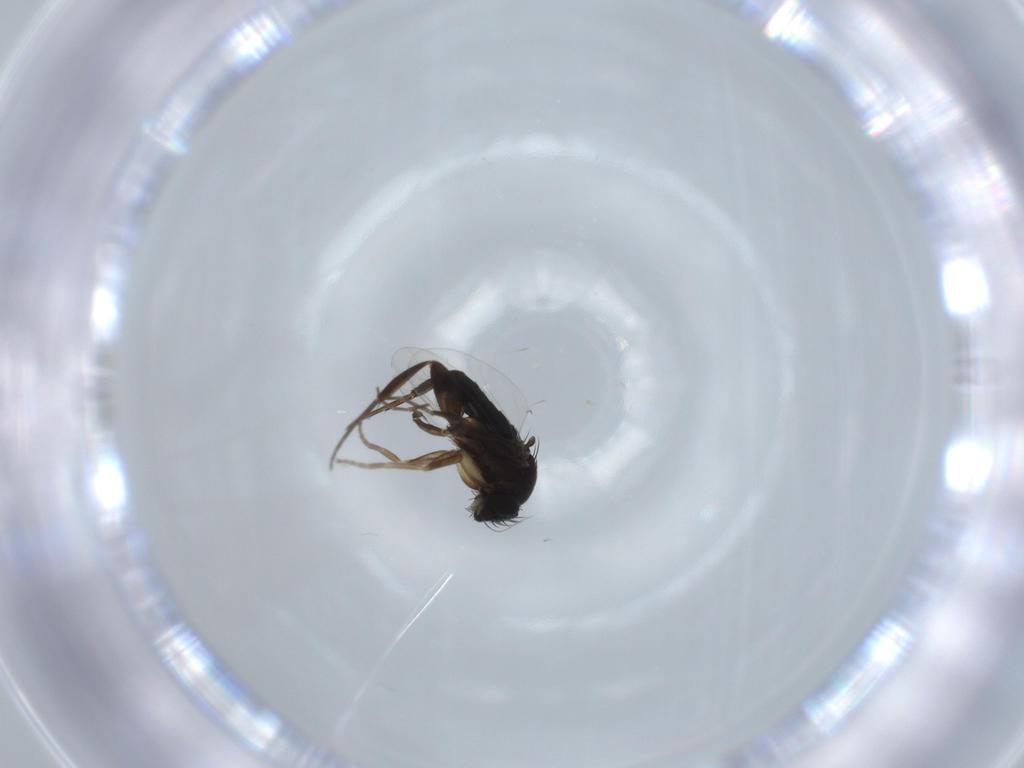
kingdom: Animalia
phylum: Arthropoda
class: Insecta
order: Diptera
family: Phoridae
